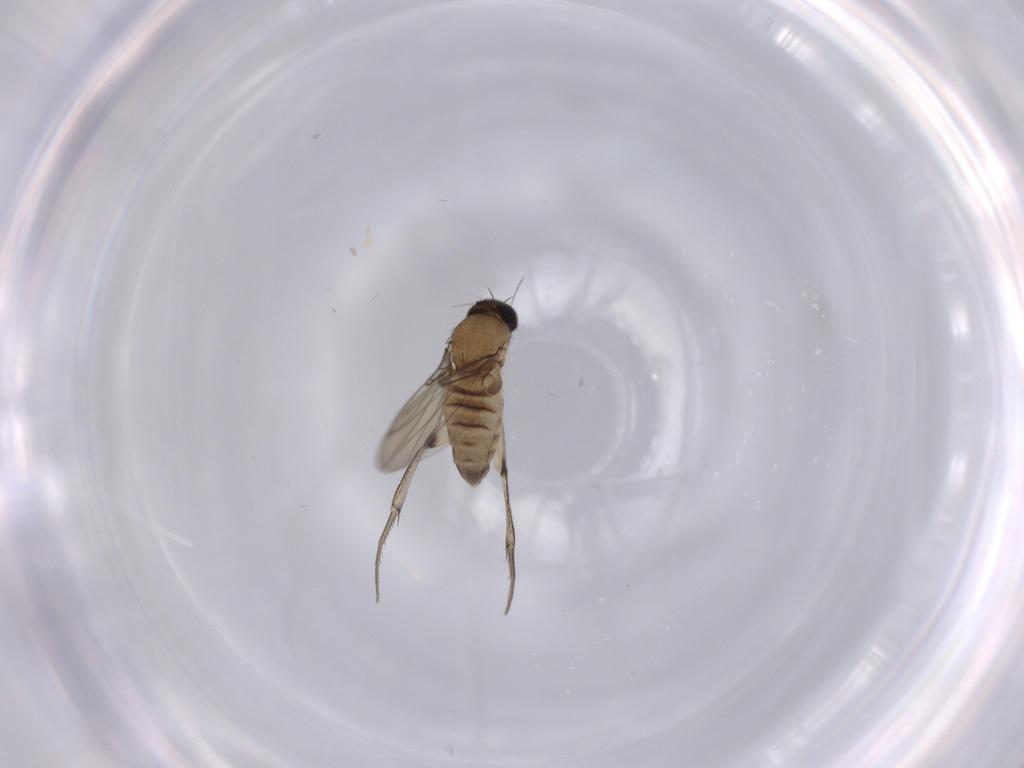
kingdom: Animalia
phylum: Arthropoda
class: Insecta
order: Diptera
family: Phoridae
